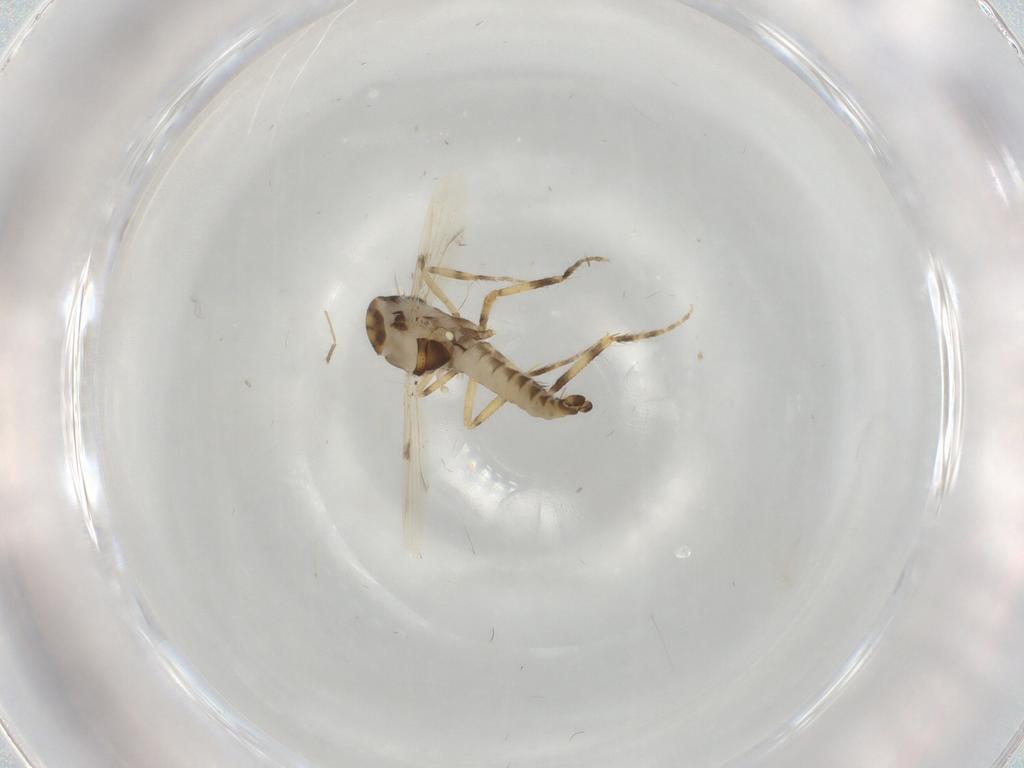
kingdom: Animalia
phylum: Arthropoda
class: Insecta
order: Diptera
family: Ceratopogonidae
